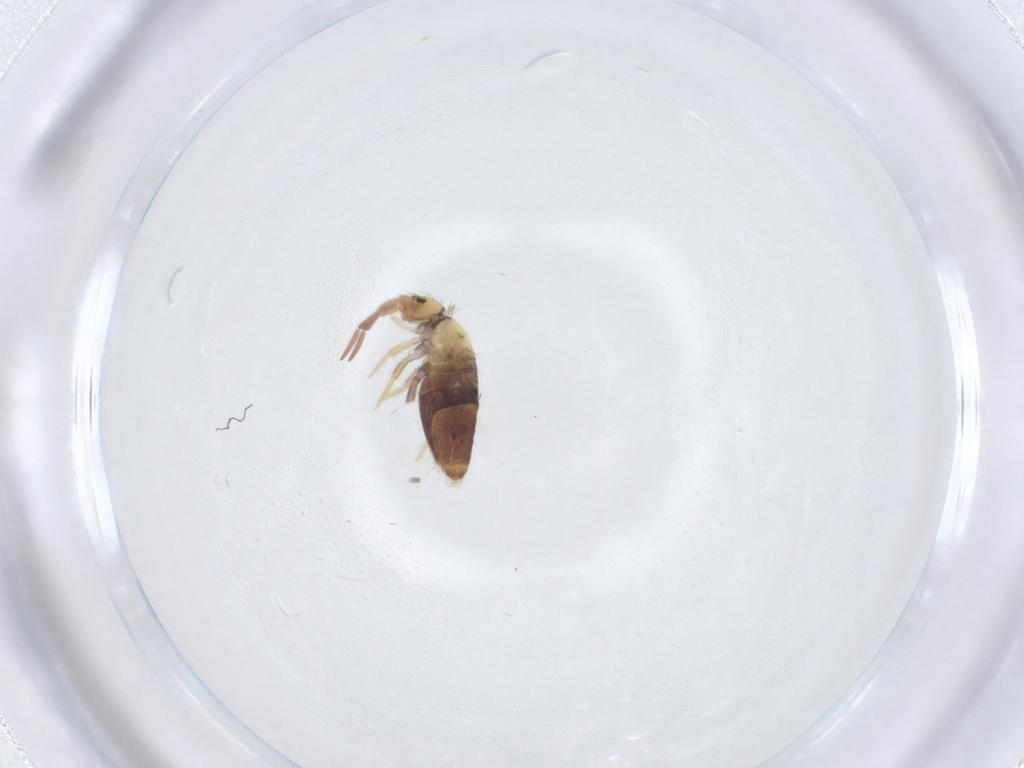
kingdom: Animalia
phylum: Arthropoda
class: Collembola
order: Entomobryomorpha
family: Entomobryidae
